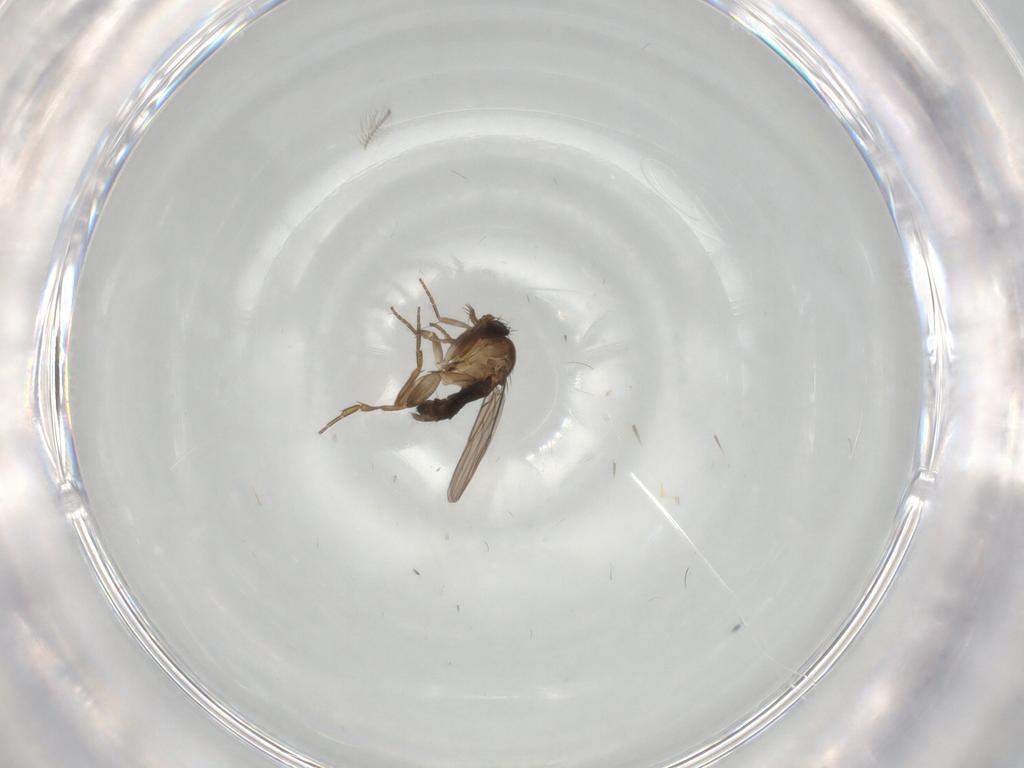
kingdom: Animalia
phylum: Arthropoda
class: Insecta
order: Diptera
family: Phoridae
